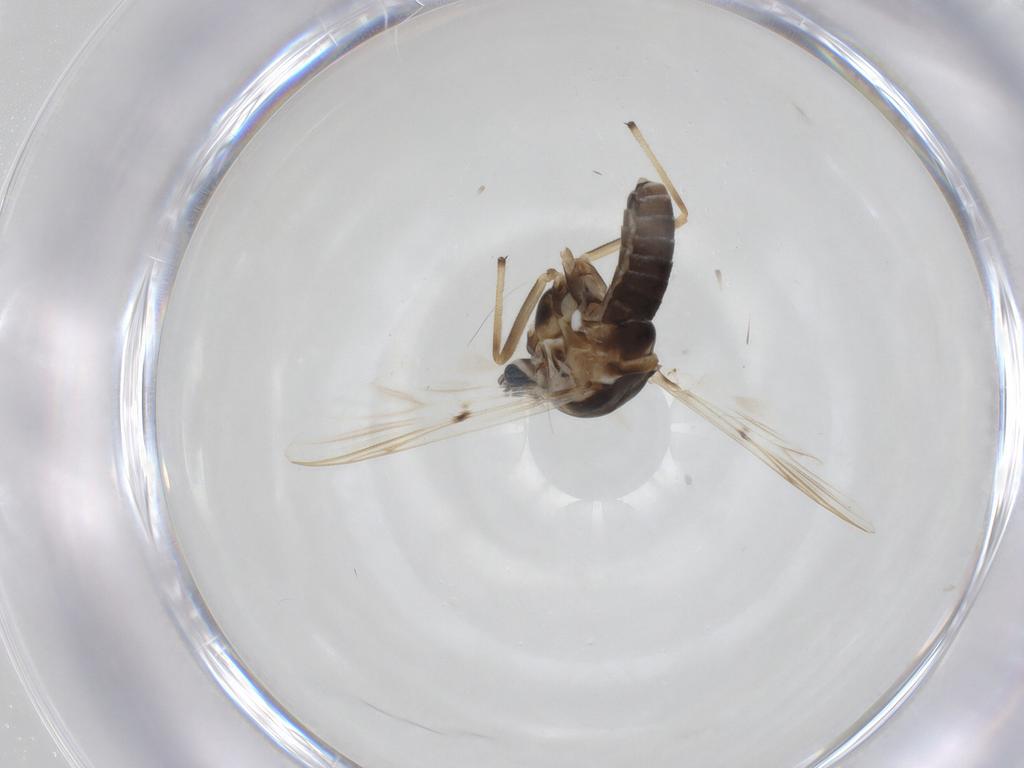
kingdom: Animalia
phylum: Arthropoda
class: Insecta
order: Diptera
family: Chironomidae
